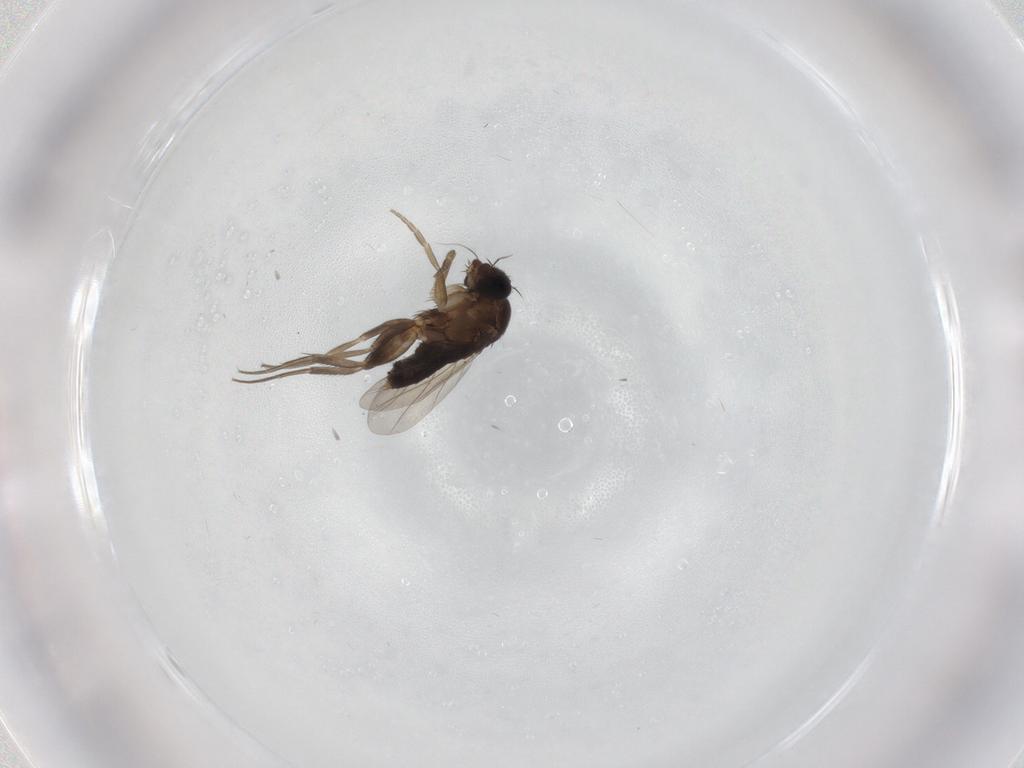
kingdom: Animalia
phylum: Arthropoda
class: Insecta
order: Diptera
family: Phoridae
